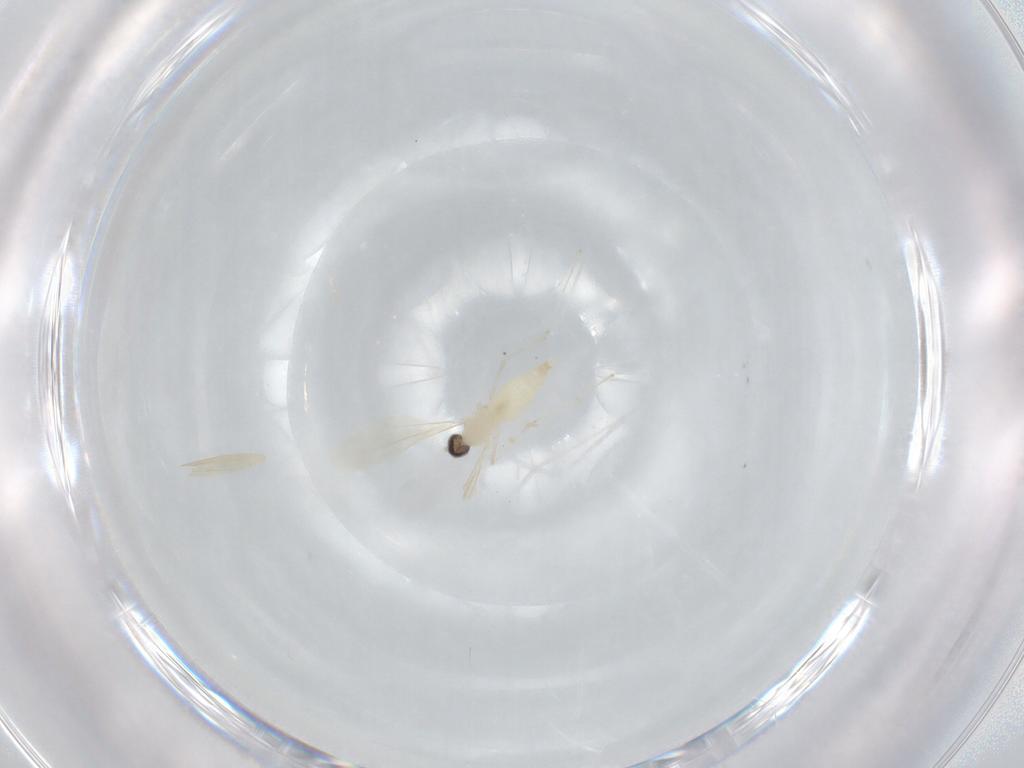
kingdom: Animalia
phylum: Arthropoda
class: Insecta
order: Diptera
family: Cecidomyiidae
